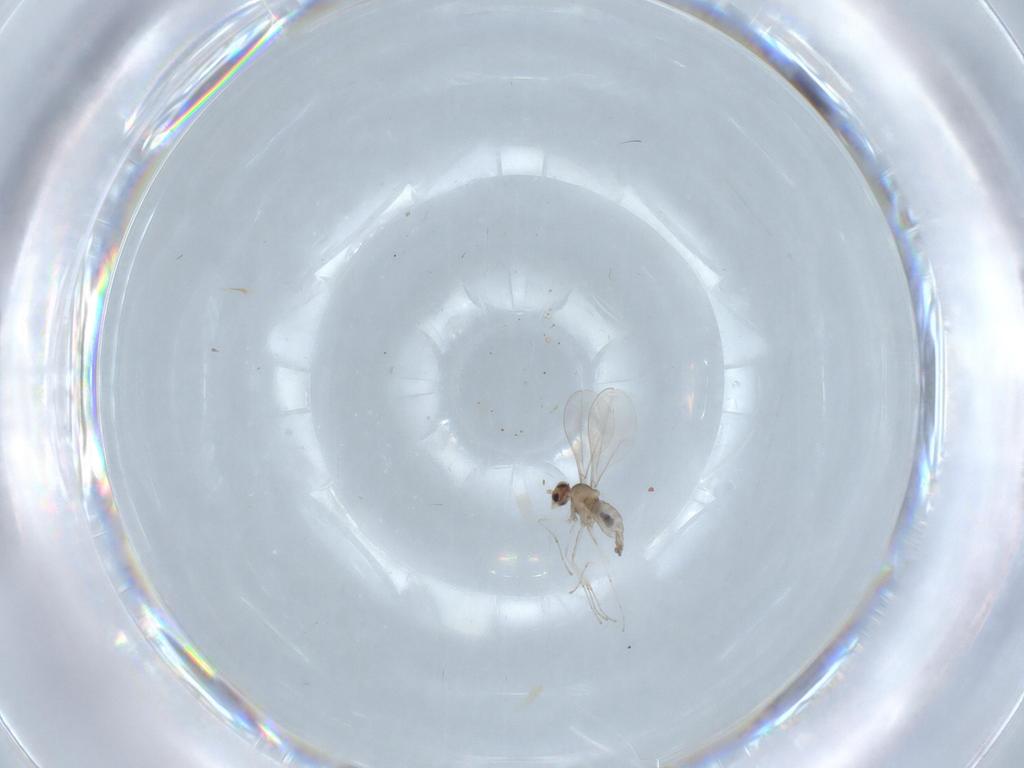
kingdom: Animalia
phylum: Arthropoda
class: Insecta
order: Diptera
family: Cecidomyiidae
